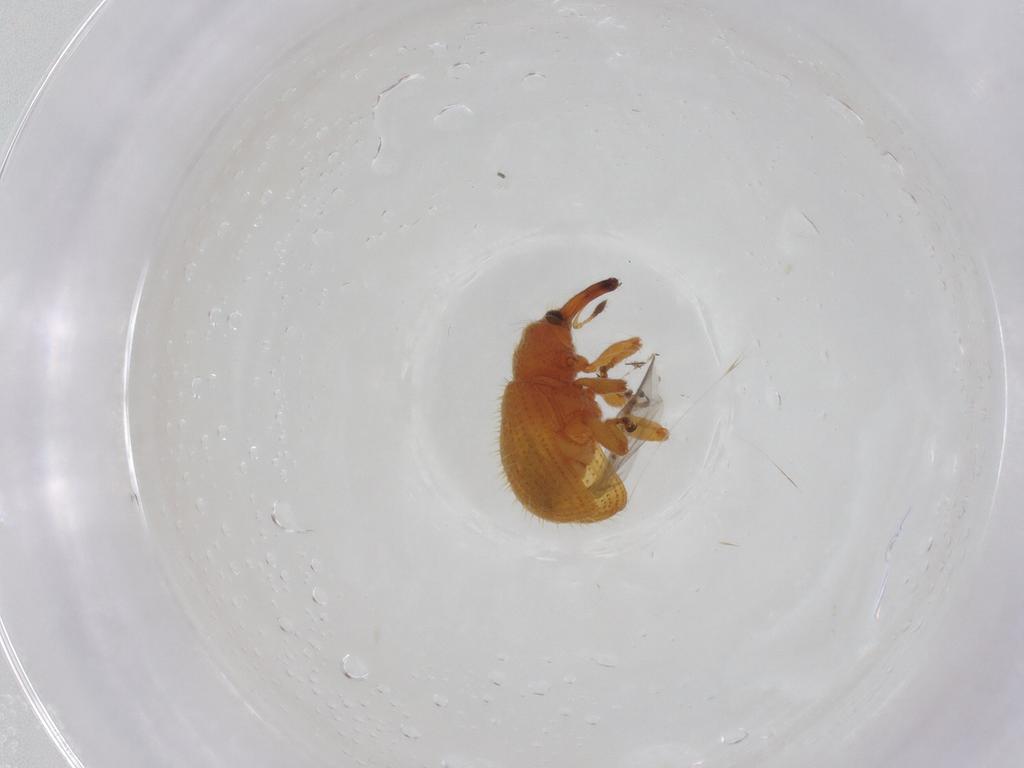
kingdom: Animalia
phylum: Arthropoda
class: Insecta
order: Coleoptera
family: Curculionidae
